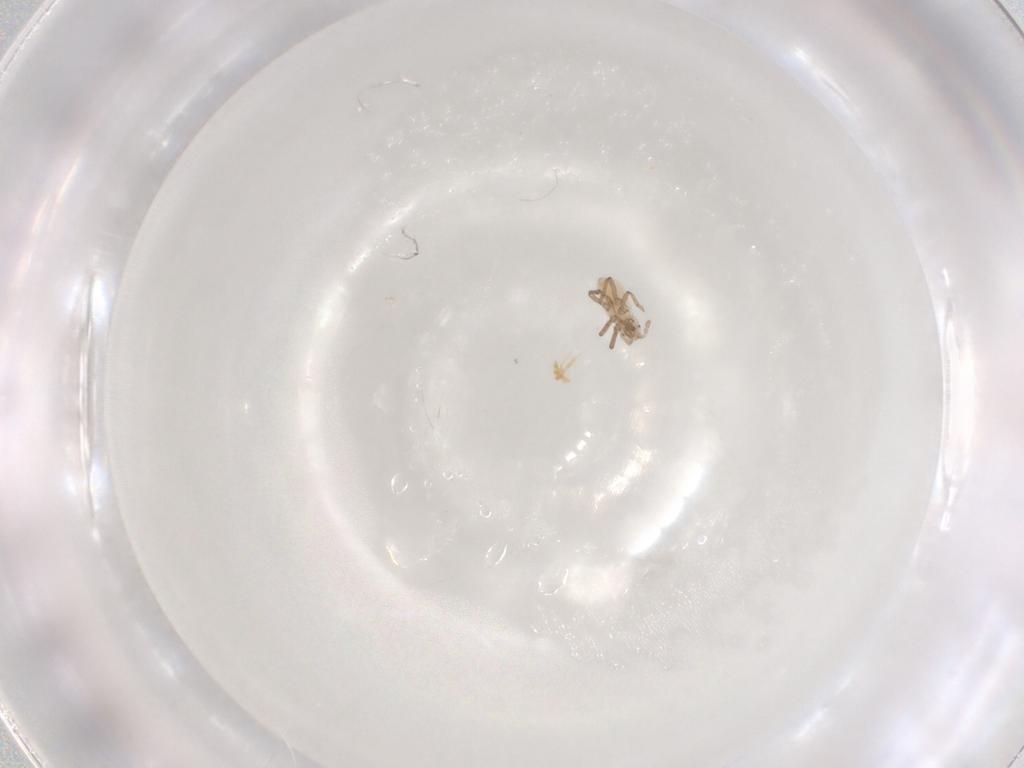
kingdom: Animalia
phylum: Arthropoda
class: Insecta
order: Hemiptera
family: Aphididae
